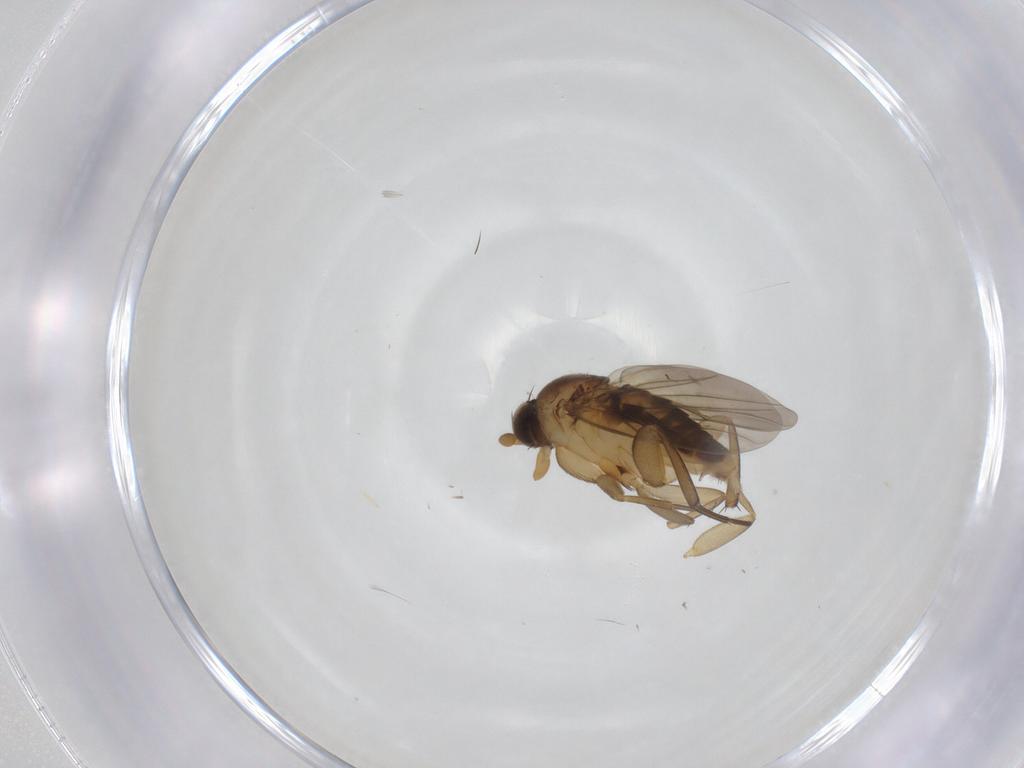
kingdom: Animalia
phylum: Arthropoda
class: Insecta
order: Diptera
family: Phoridae
